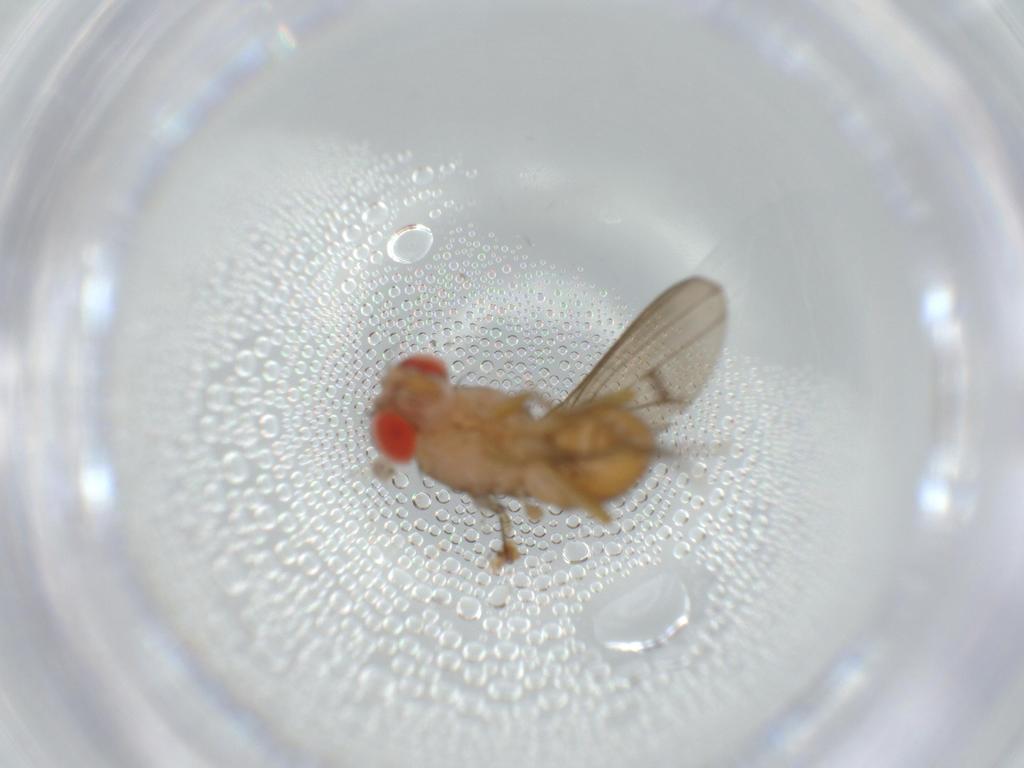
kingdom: Animalia
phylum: Arthropoda
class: Insecta
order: Diptera
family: Drosophilidae
